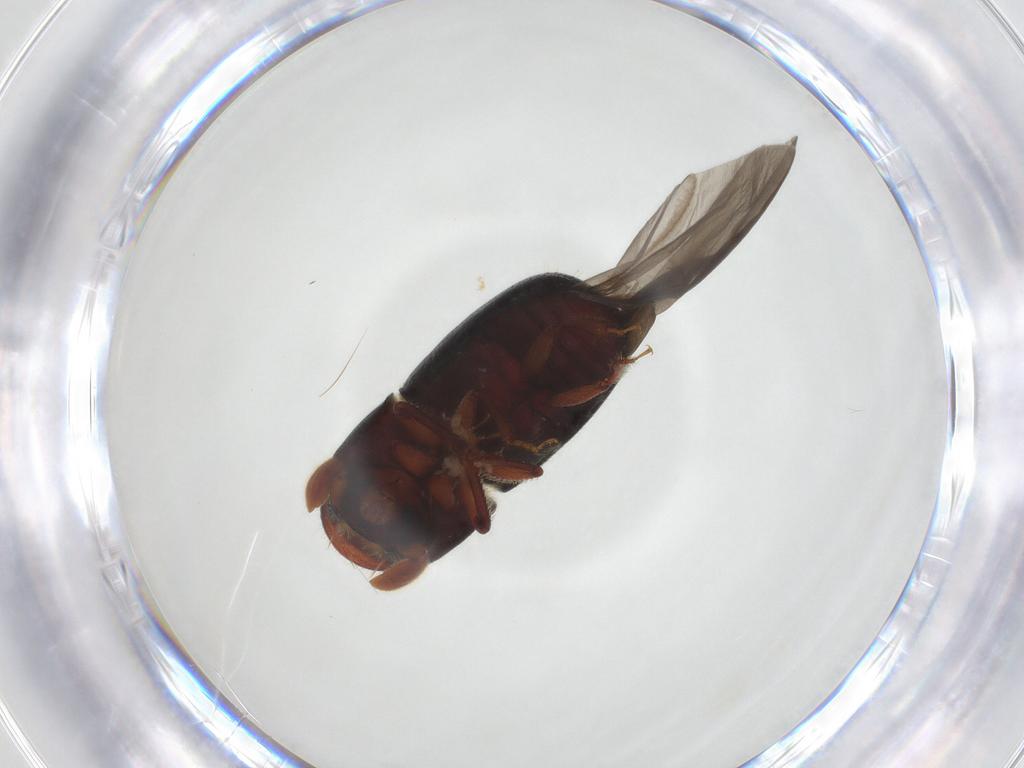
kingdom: Animalia
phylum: Arthropoda
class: Insecta
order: Coleoptera
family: Curculionidae
